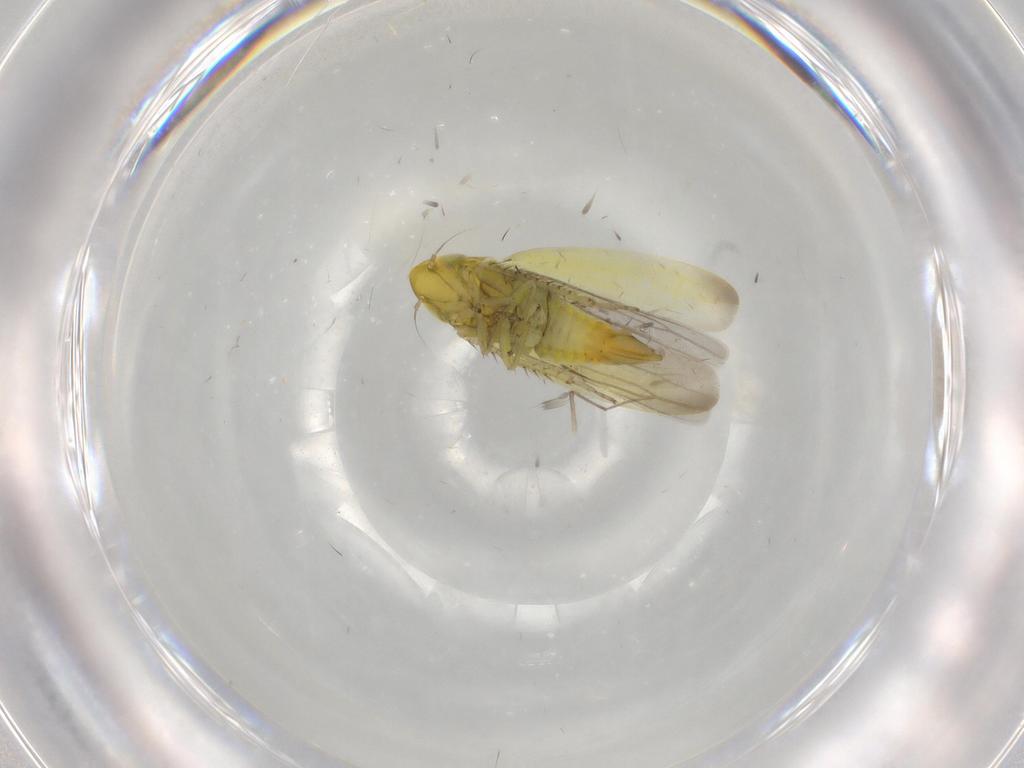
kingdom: Animalia
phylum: Arthropoda
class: Insecta
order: Hemiptera
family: Cicadellidae
